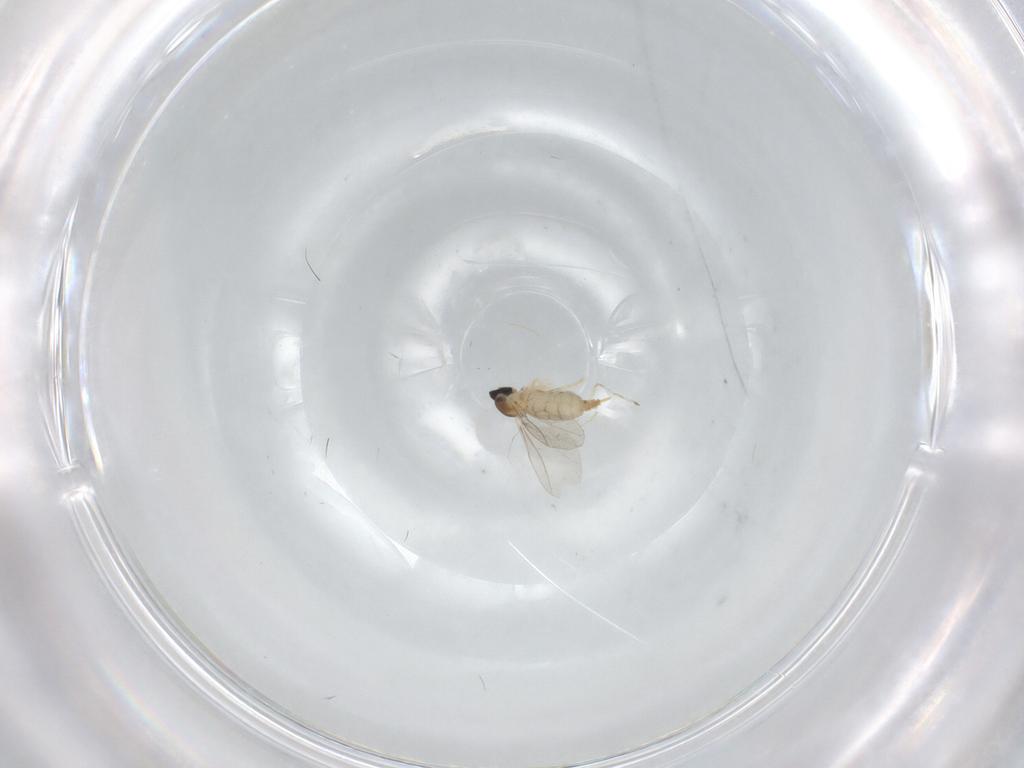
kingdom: Animalia
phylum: Arthropoda
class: Insecta
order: Diptera
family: Cecidomyiidae
